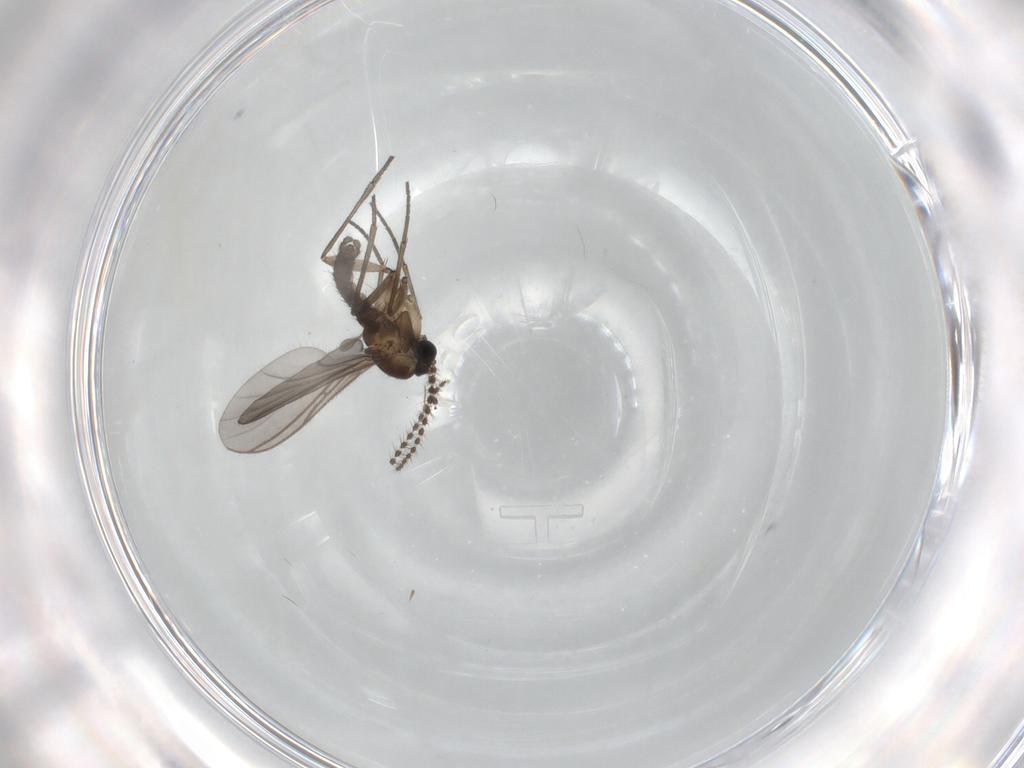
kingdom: Animalia
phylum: Arthropoda
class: Insecta
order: Diptera
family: Sciaridae
